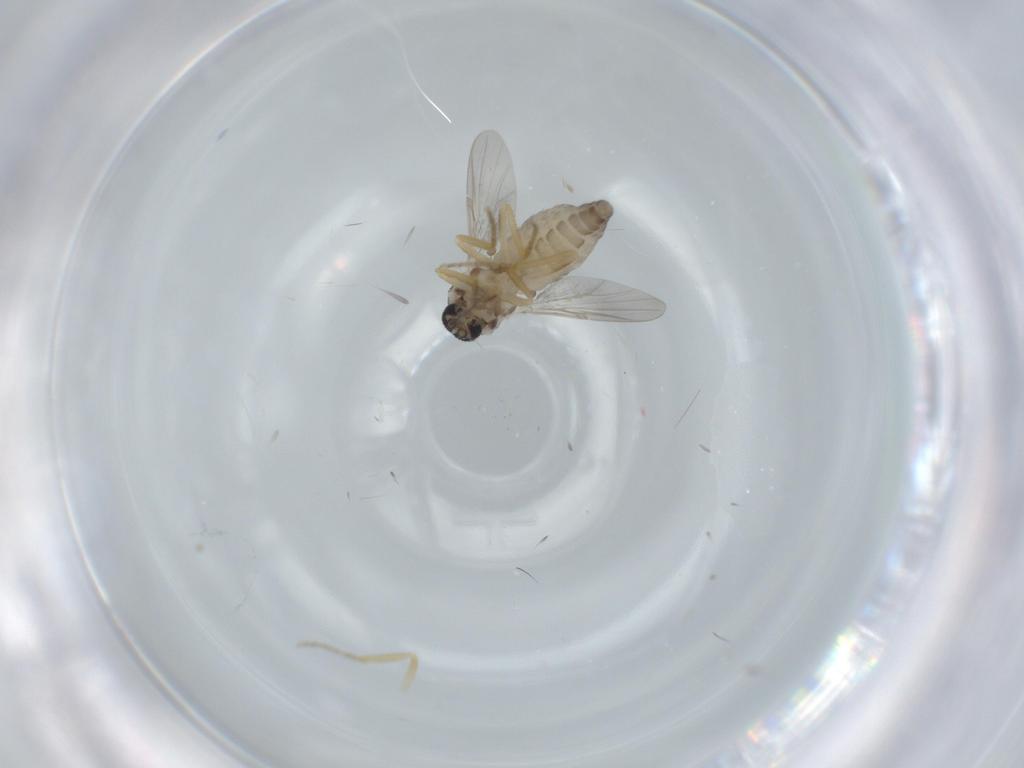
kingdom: Animalia
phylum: Arthropoda
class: Insecta
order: Diptera
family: Ceratopogonidae
